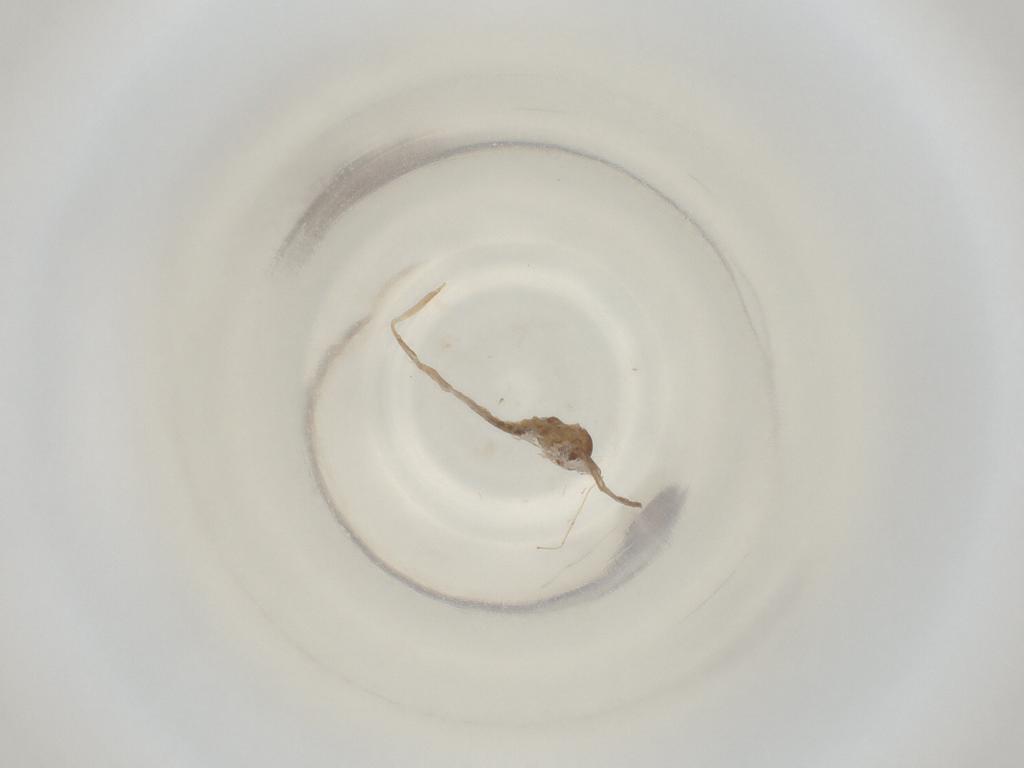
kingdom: Animalia
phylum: Arthropoda
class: Insecta
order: Diptera
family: Cecidomyiidae
